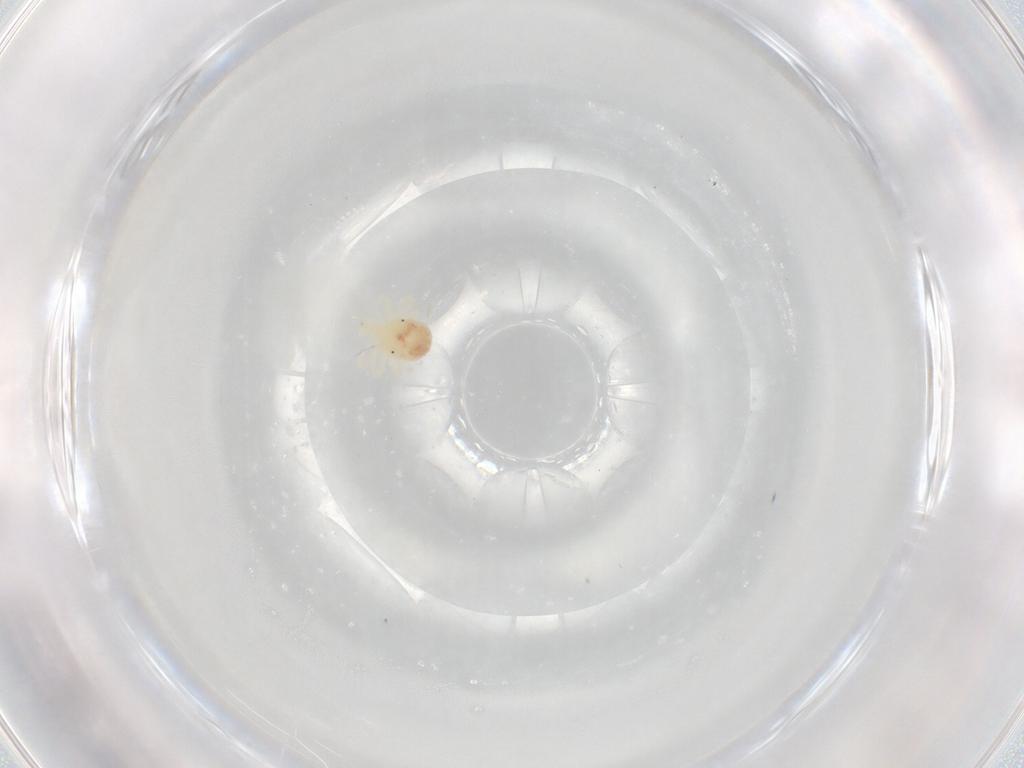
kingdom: Animalia
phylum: Arthropoda
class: Arachnida
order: Trombidiformes
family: Anystidae
